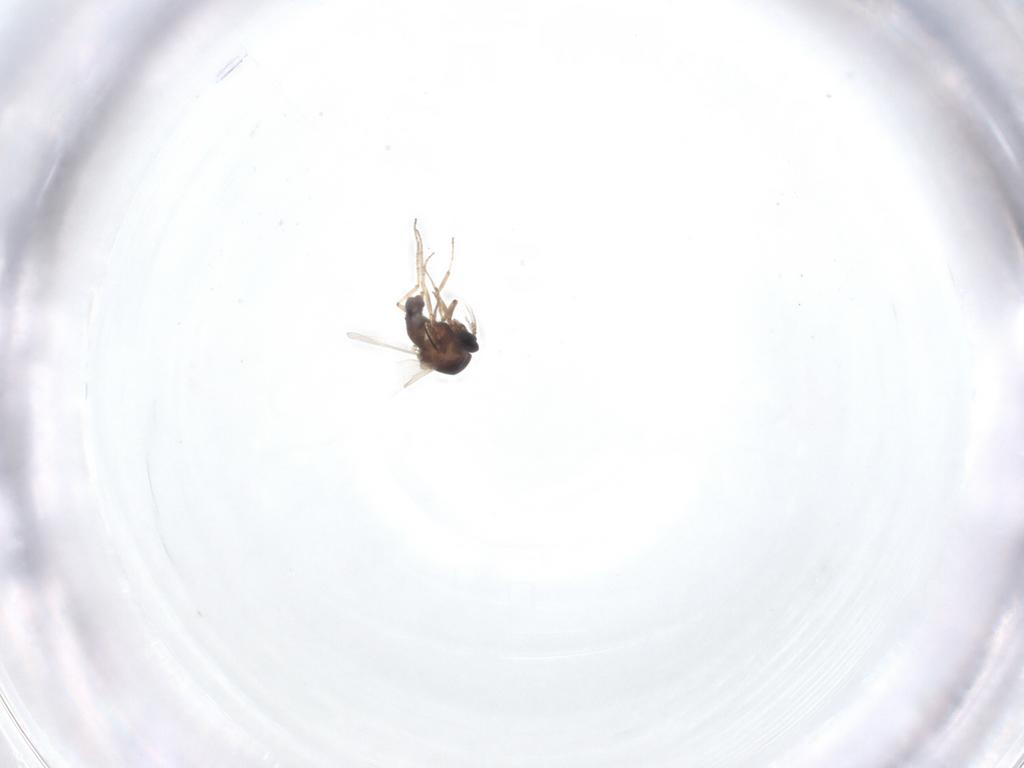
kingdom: Animalia
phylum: Arthropoda
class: Insecta
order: Diptera
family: Ceratopogonidae
